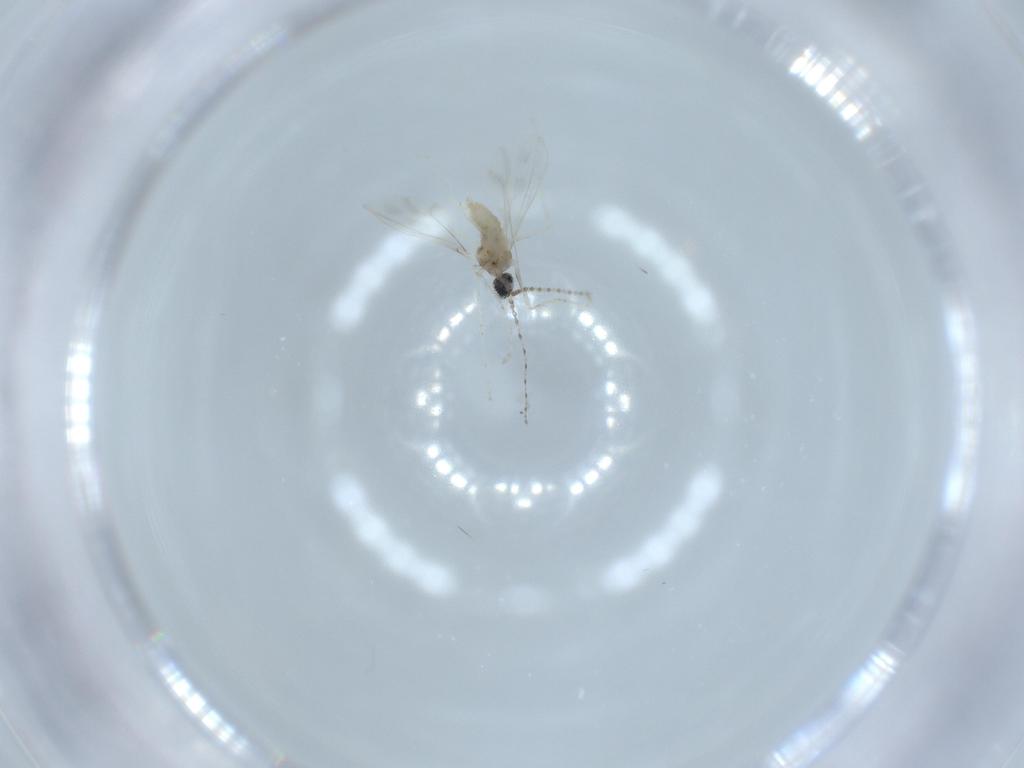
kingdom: Animalia
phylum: Arthropoda
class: Insecta
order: Diptera
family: Cecidomyiidae
